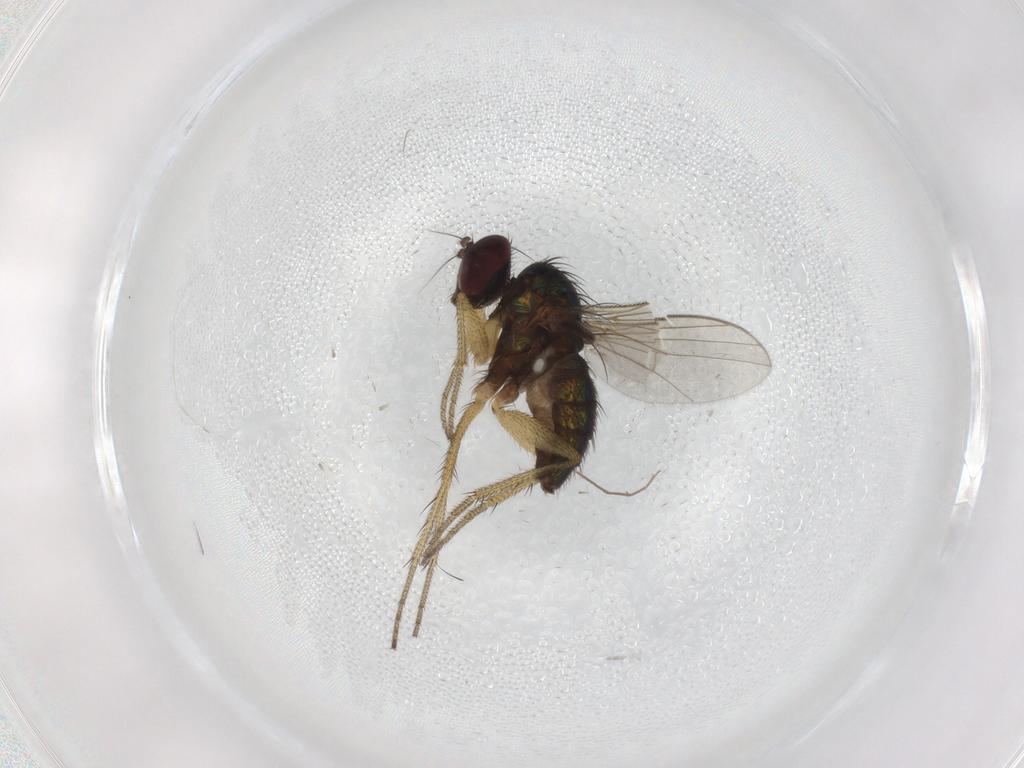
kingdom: Animalia
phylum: Arthropoda
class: Insecta
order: Diptera
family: Chironomidae
